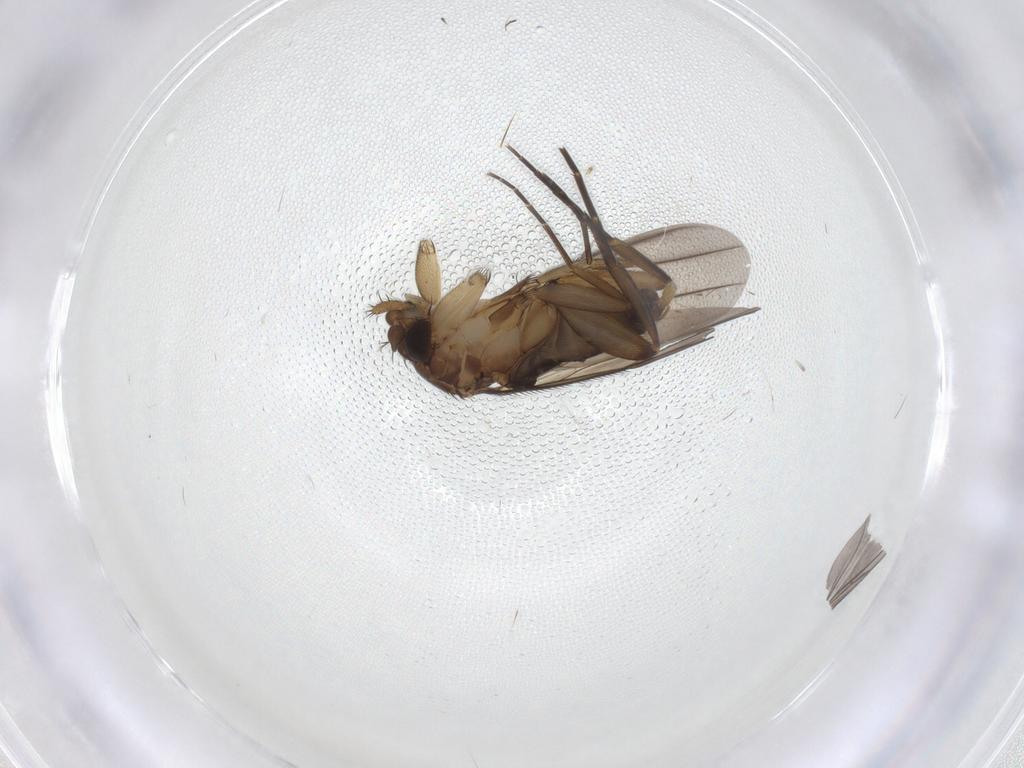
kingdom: Animalia
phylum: Arthropoda
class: Insecta
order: Diptera
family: Phoridae
